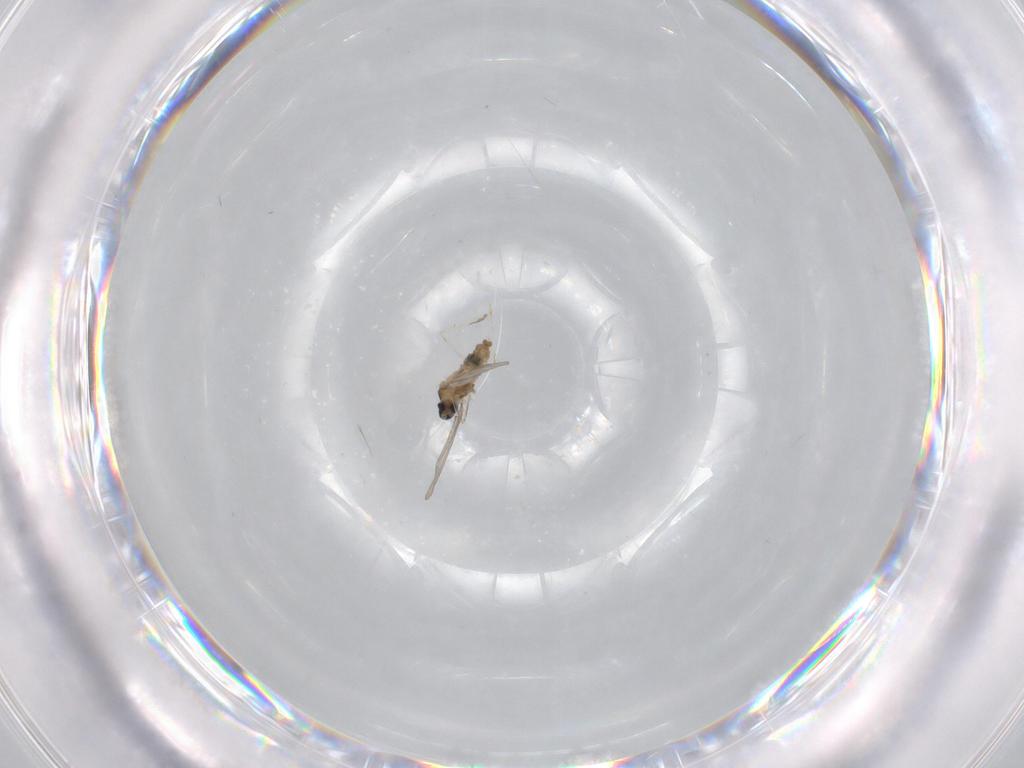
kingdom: Animalia
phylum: Arthropoda
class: Insecta
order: Diptera
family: Cecidomyiidae
